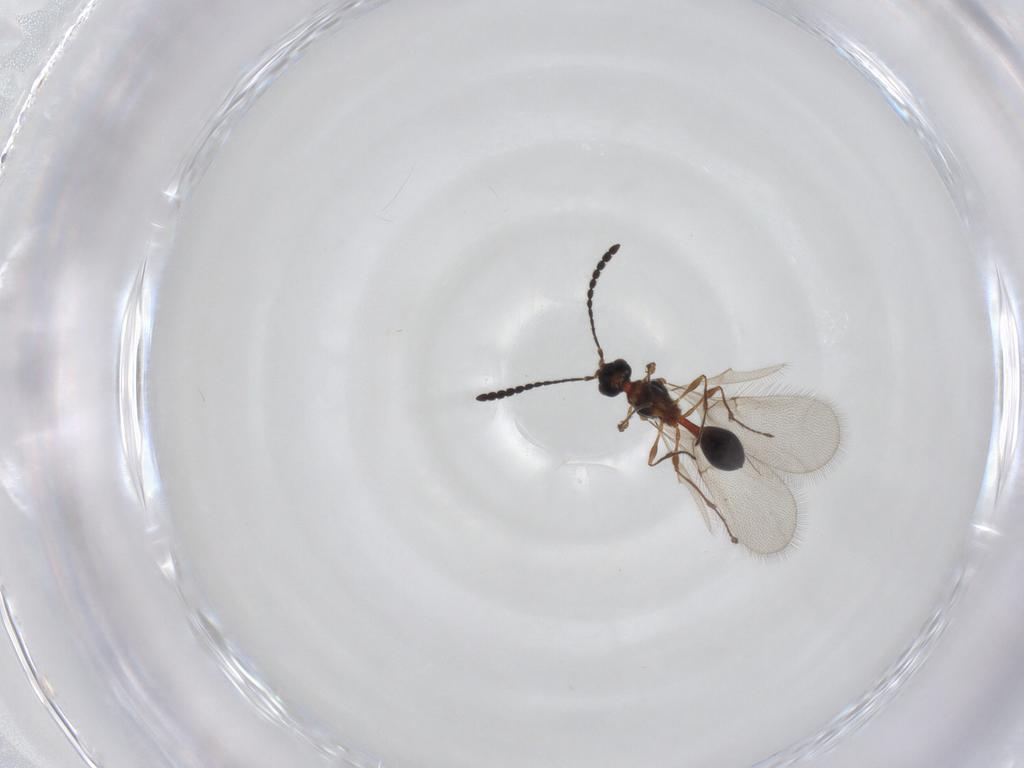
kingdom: Animalia
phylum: Arthropoda
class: Insecta
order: Hymenoptera
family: Diapriidae
